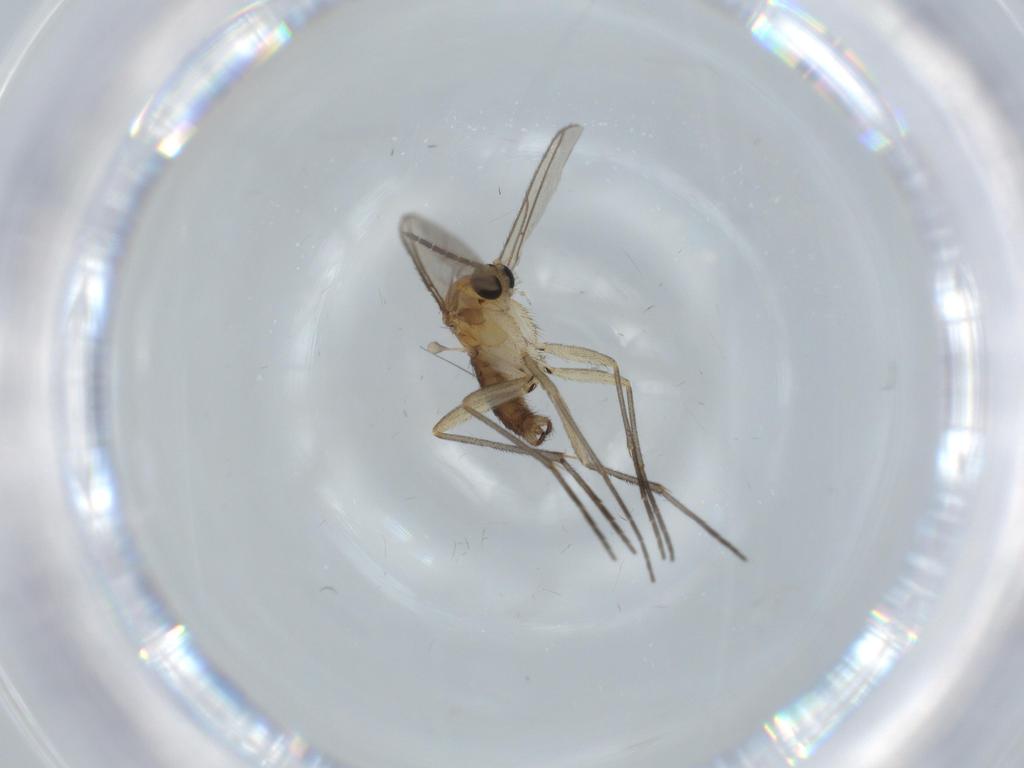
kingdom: Animalia
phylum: Arthropoda
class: Insecta
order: Diptera
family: Sciaridae
